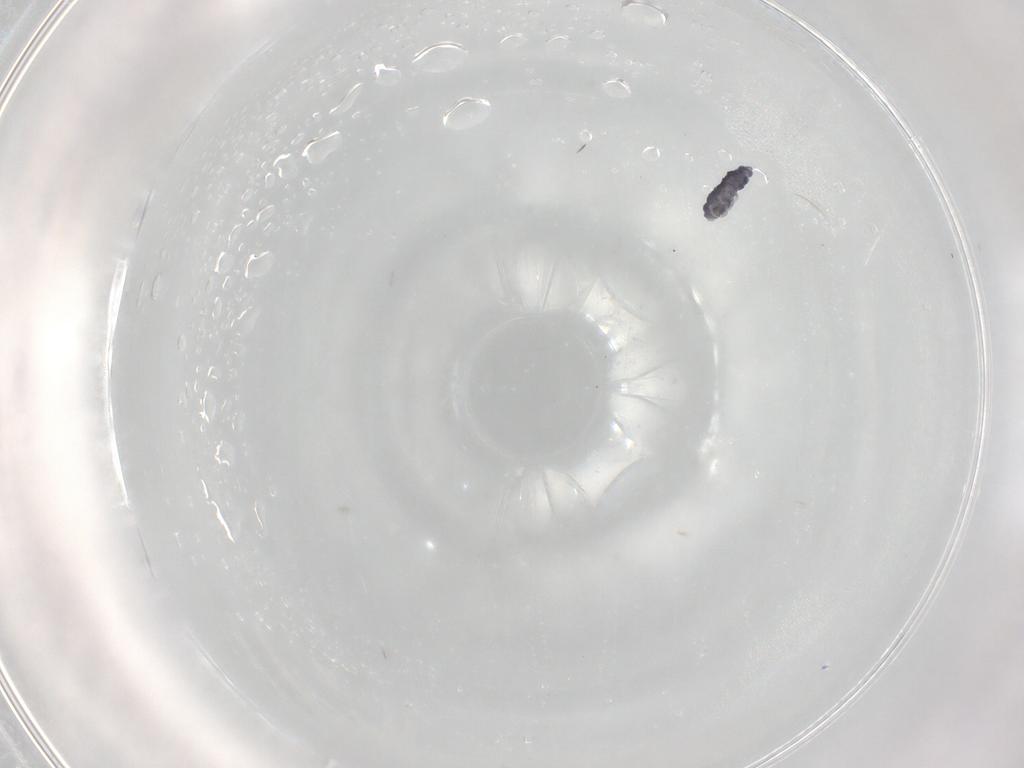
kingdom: Animalia
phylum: Arthropoda
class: Collembola
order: Poduromorpha
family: Neanuridae
